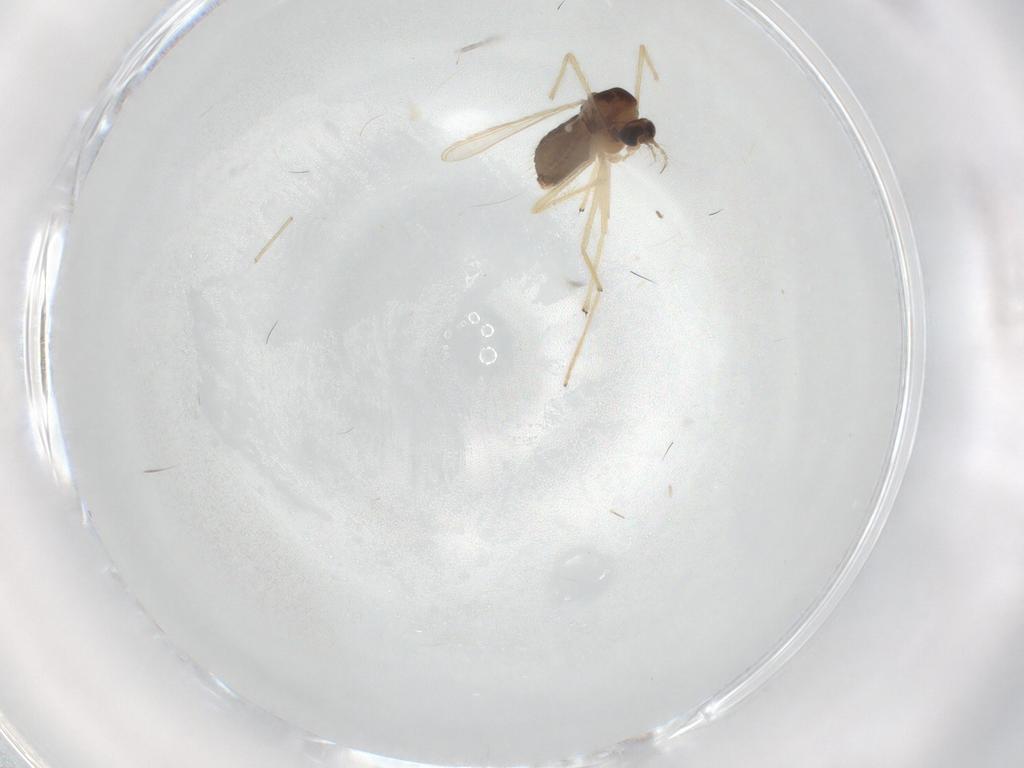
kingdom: Animalia
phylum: Arthropoda
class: Insecta
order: Diptera
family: Chironomidae
